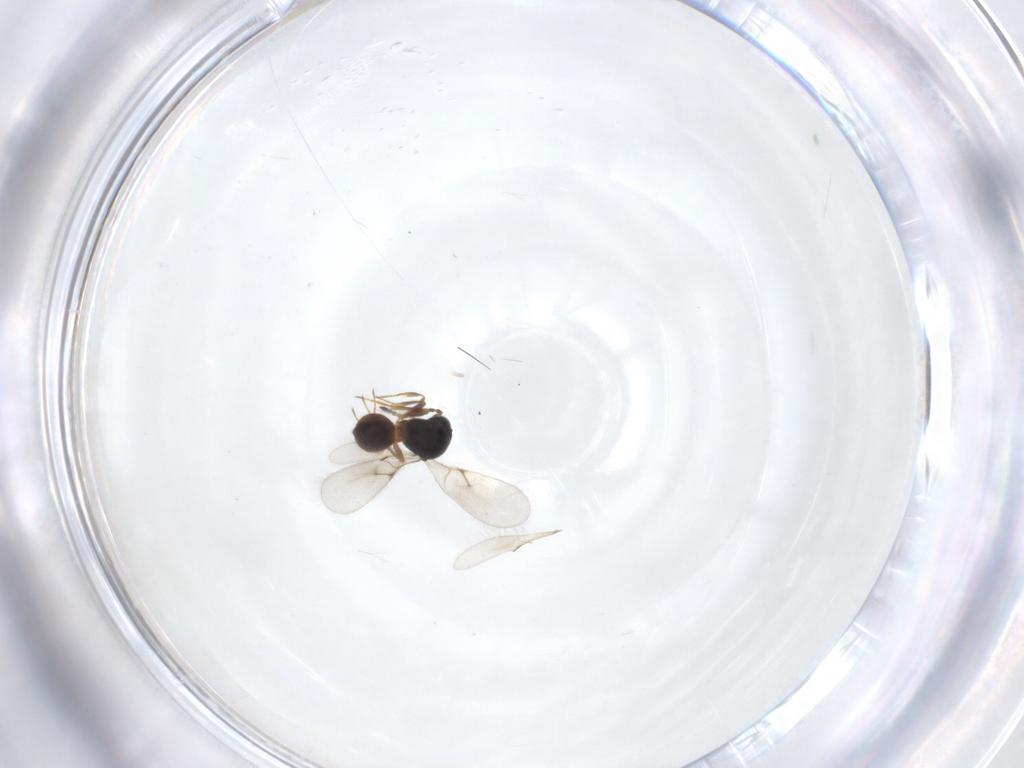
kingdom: Animalia
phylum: Arthropoda
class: Arachnida
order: Araneae
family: Pholcidae
